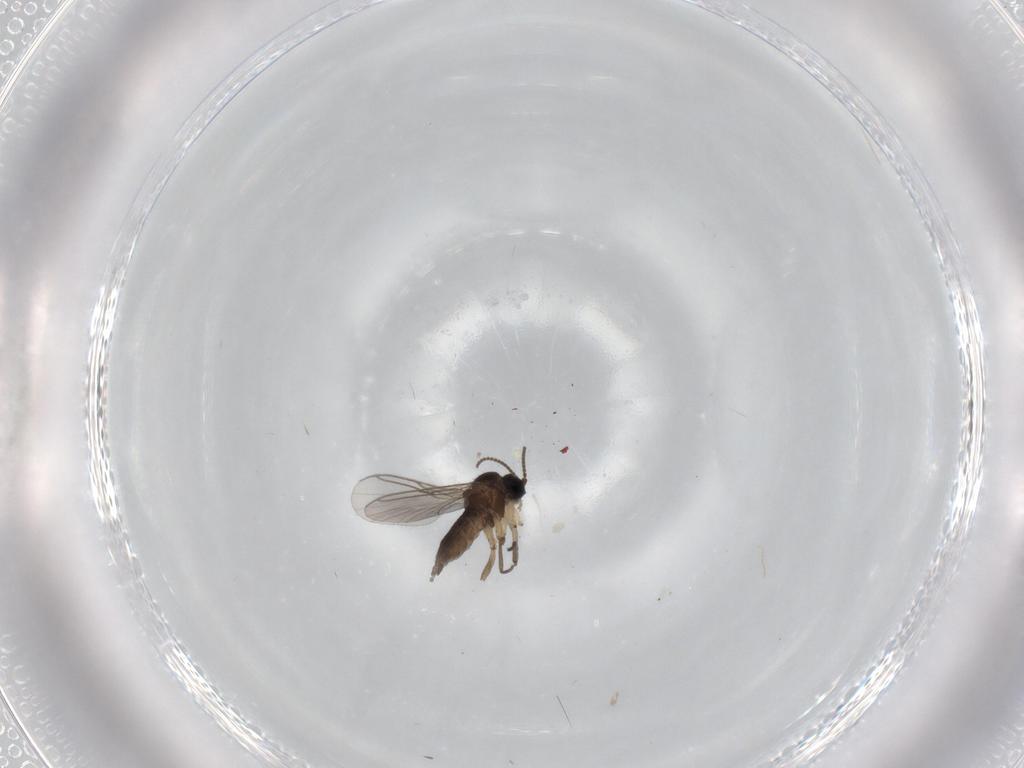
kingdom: Animalia
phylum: Arthropoda
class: Insecta
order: Diptera
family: Sciaridae
